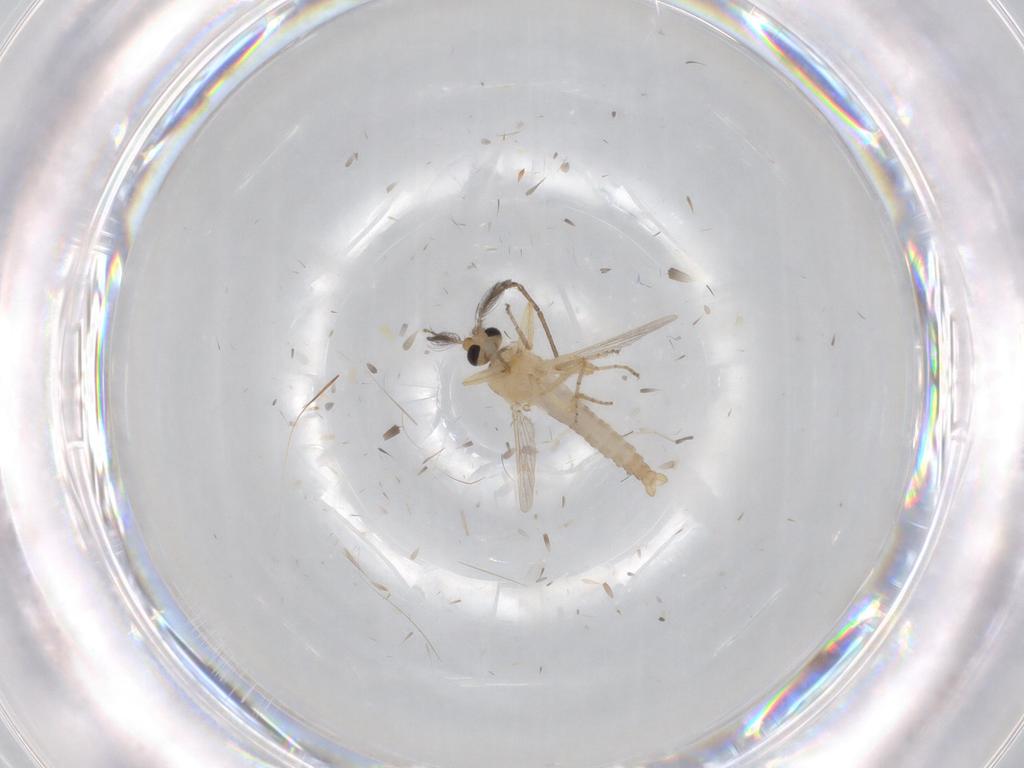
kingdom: Animalia
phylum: Arthropoda
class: Insecta
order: Diptera
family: Ceratopogonidae
